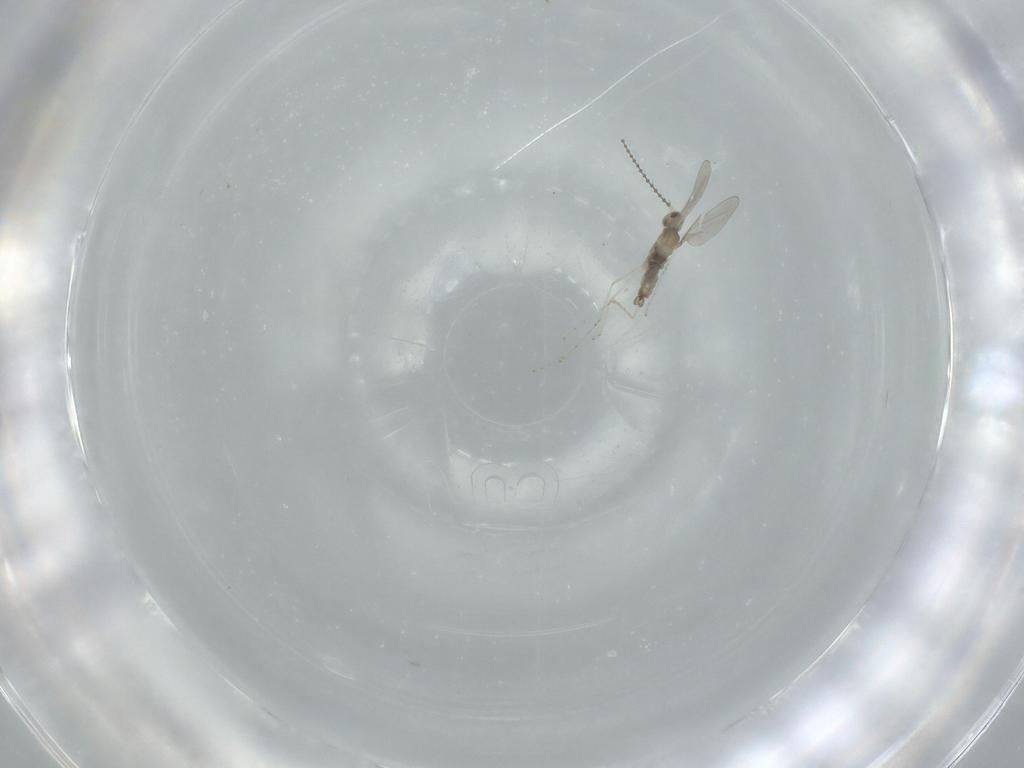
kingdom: Animalia
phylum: Arthropoda
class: Insecta
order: Diptera
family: Cecidomyiidae
